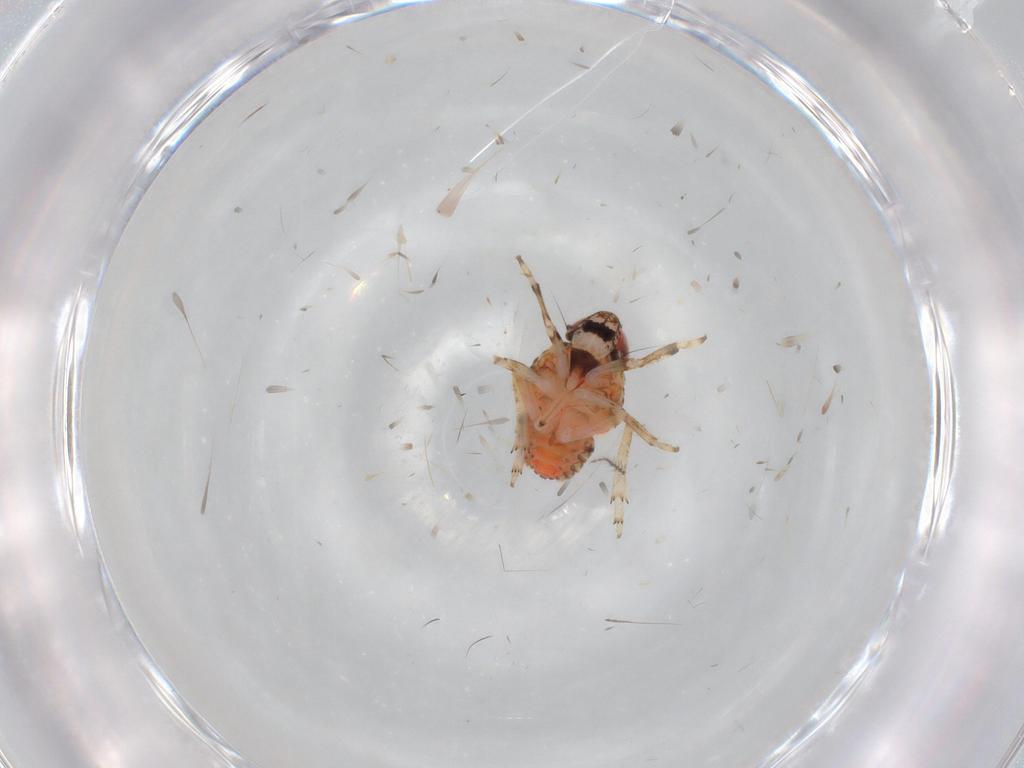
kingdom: Animalia
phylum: Arthropoda
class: Insecta
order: Hemiptera
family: Issidae
